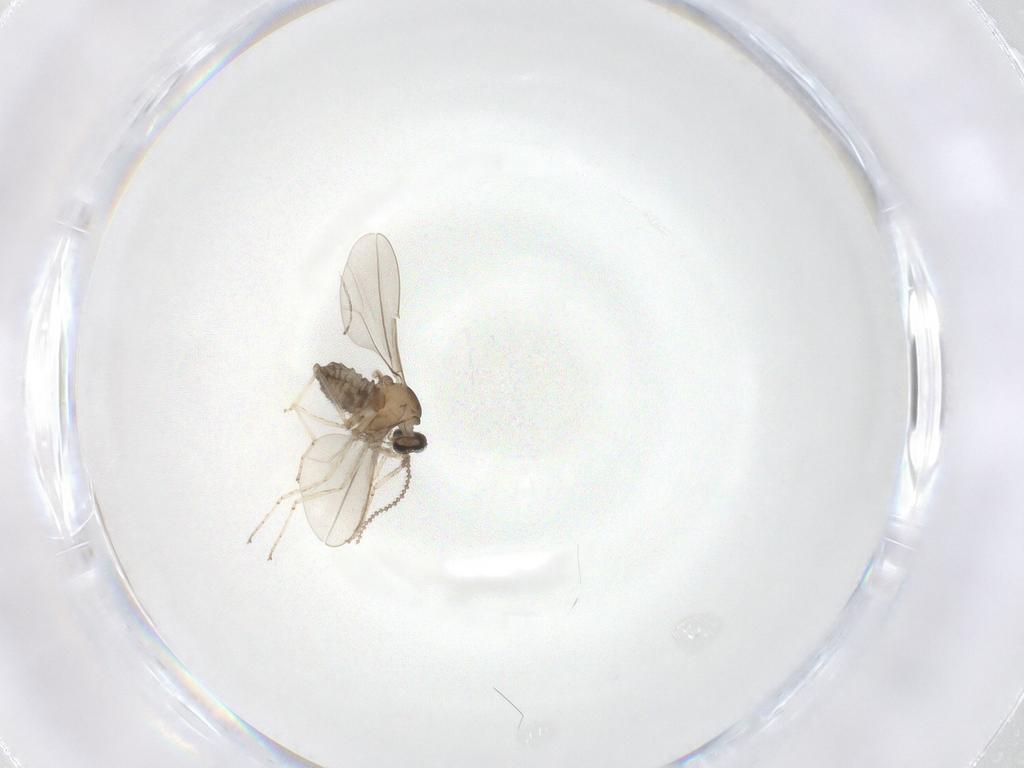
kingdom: Animalia
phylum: Arthropoda
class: Insecta
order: Diptera
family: Cecidomyiidae
